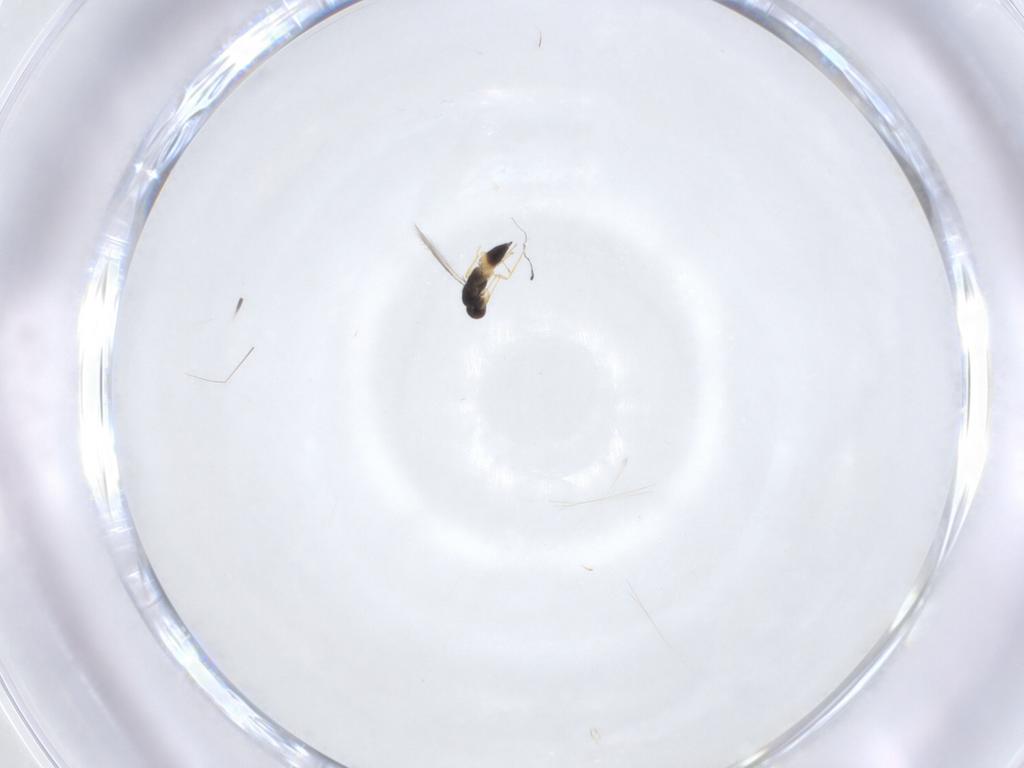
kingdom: Animalia
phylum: Arthropoda
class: Insecta
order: Hymenoptera
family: Mymaridae
